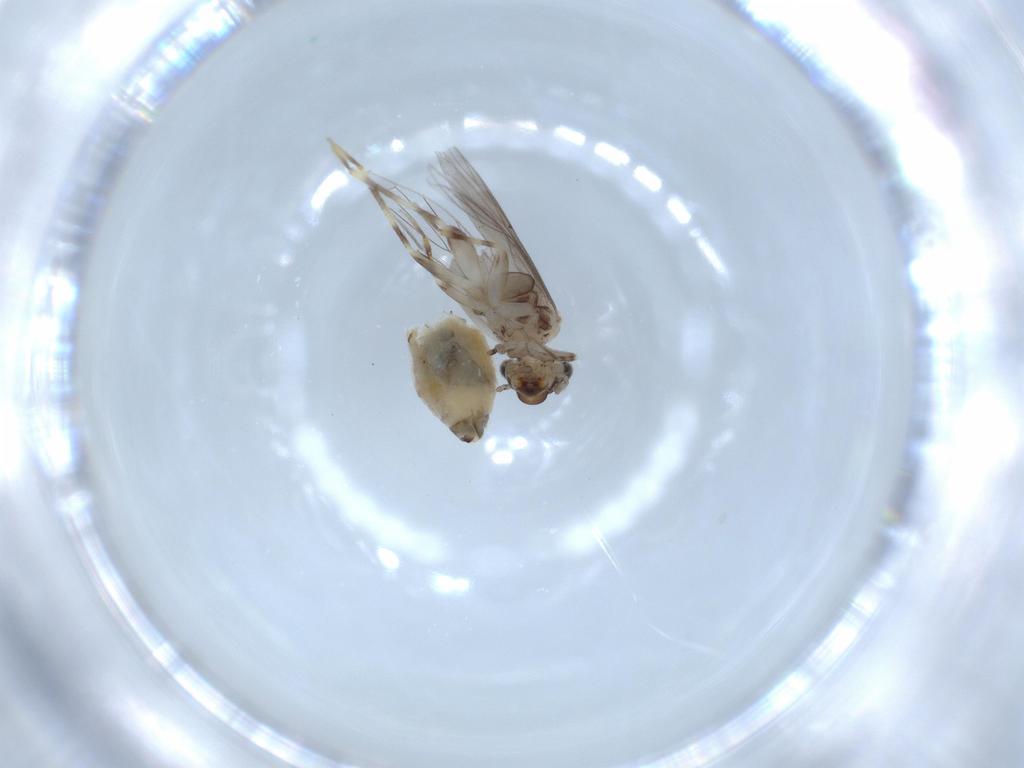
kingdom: Animalia
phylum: Arthropoda
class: Insecta
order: Psocodea
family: Lepidopsocidae
